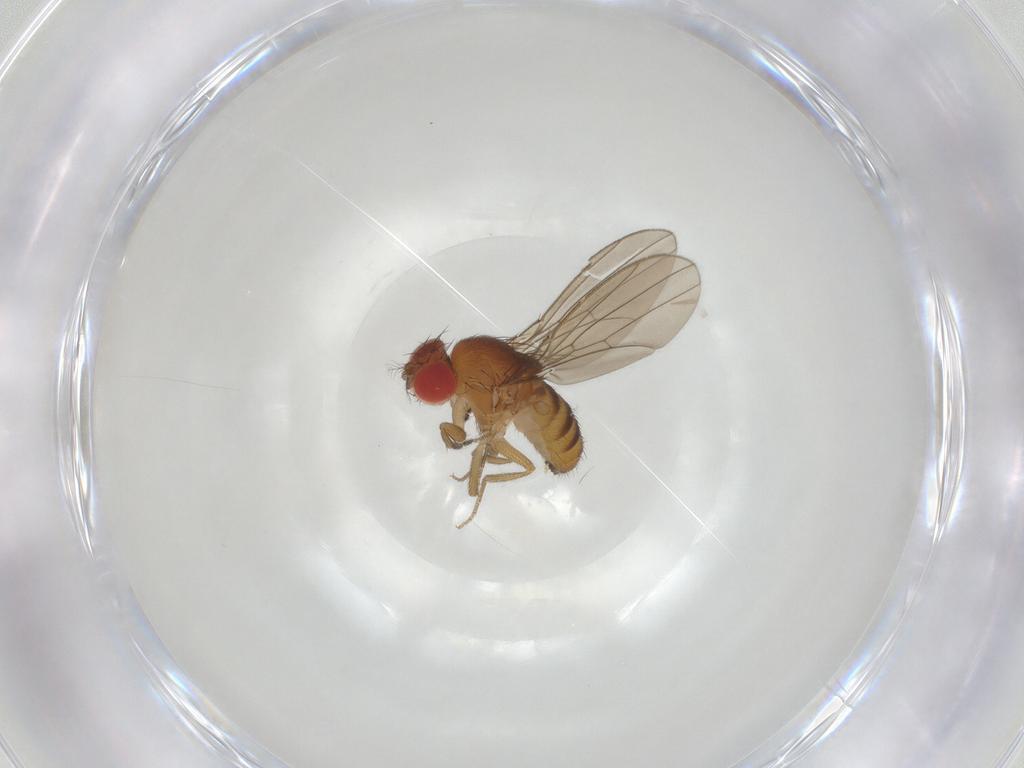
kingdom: Animalia
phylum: Arthropoda
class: Insecta
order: Diptera
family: Drosophilidae
